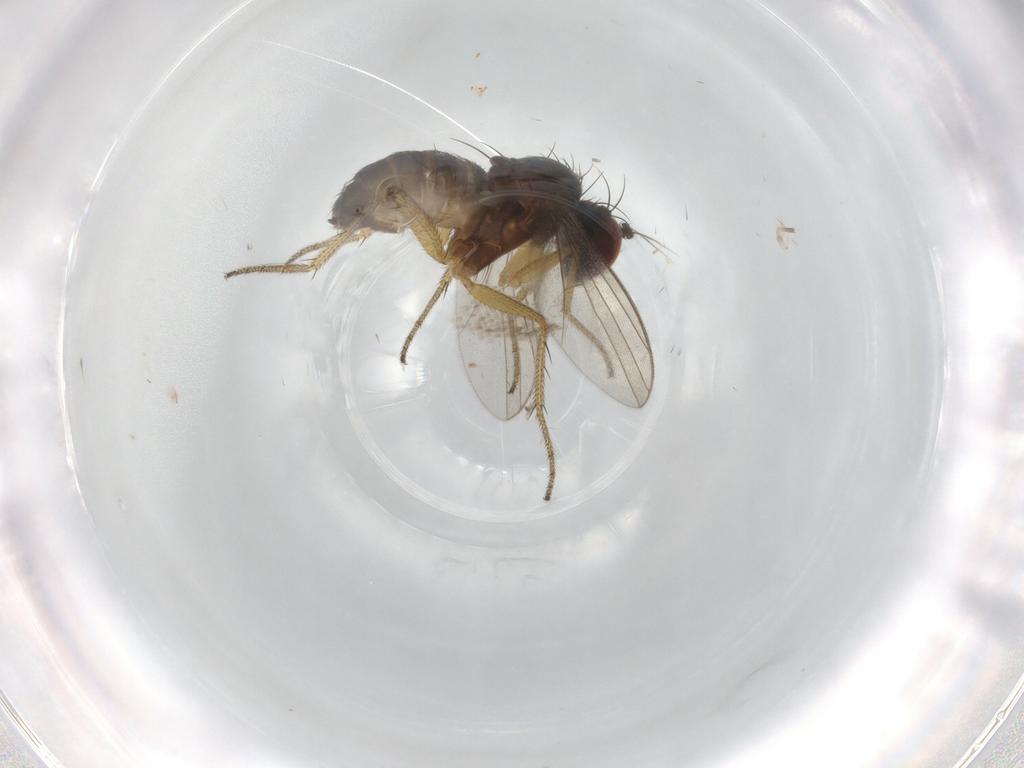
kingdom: Animalia
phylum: Arthropoda
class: Insecta
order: Diptera
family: Dolichopodidae
